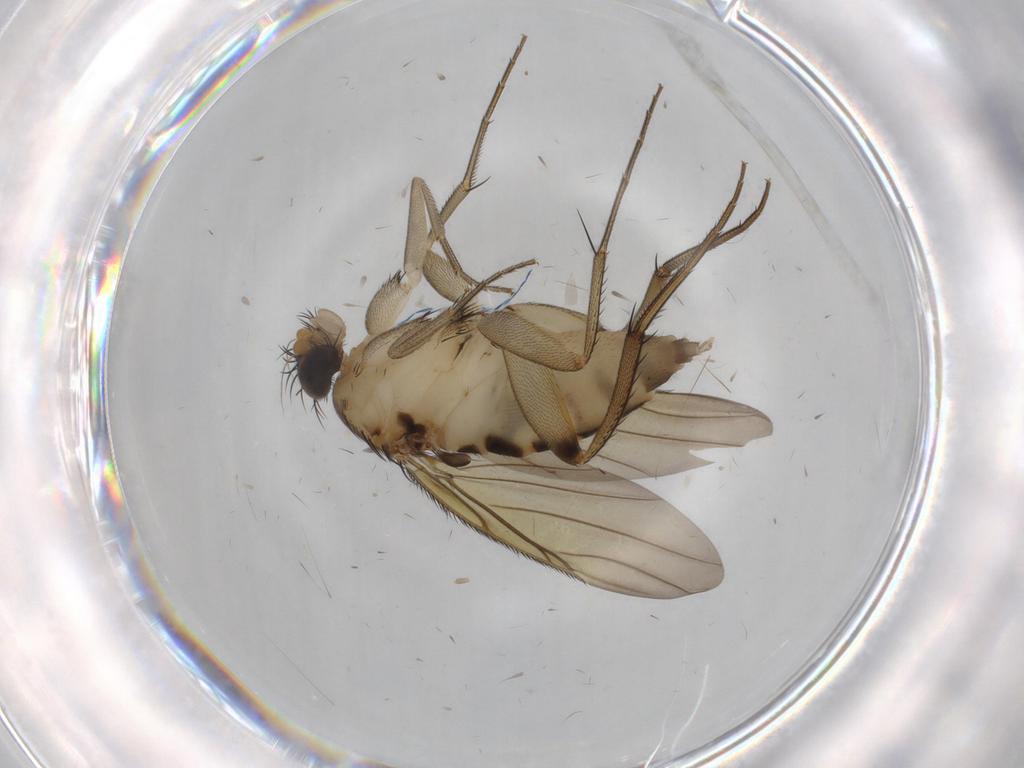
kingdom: Animalia
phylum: Arthropoda
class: Insecta
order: Diptera
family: Phoridae
